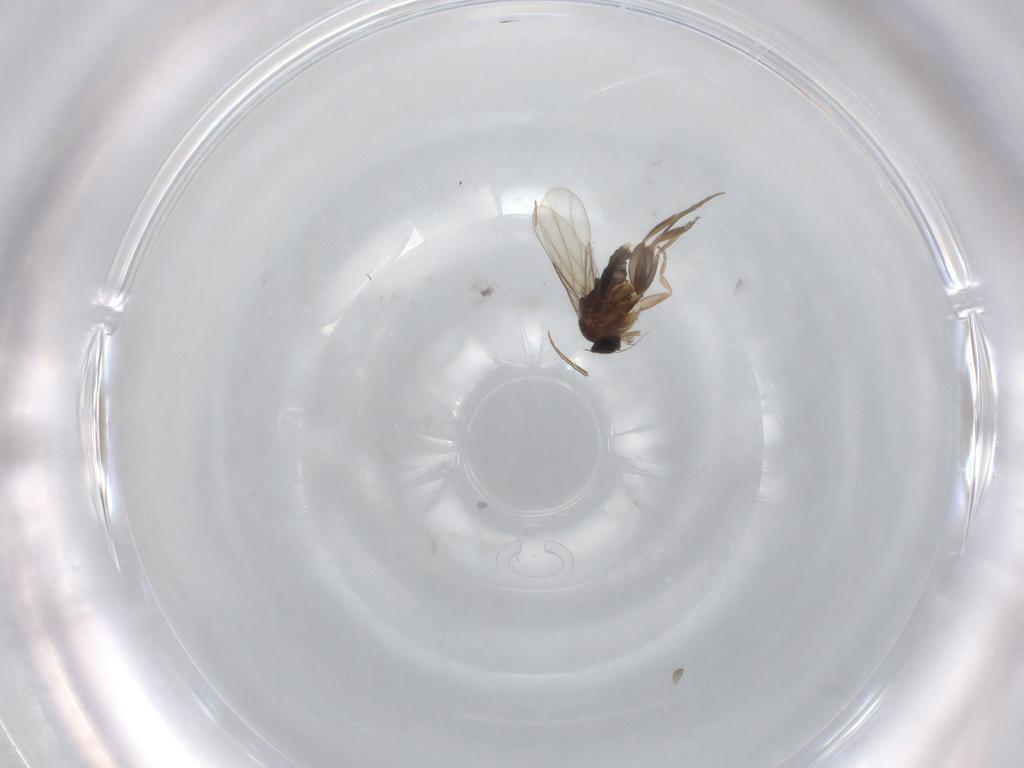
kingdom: Animalia
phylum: Arthropoda
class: Insecta
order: Diptera
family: Phoridae
